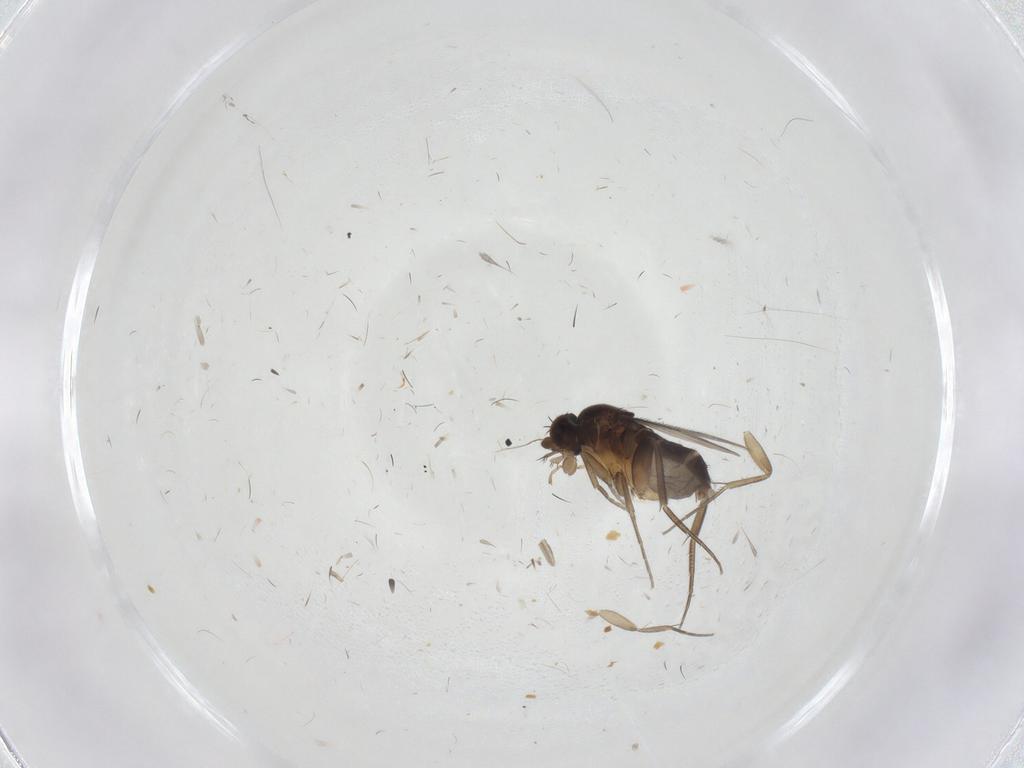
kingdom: Animalia
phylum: Arthropoda
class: Insecta
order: Diptera
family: Phoridae
